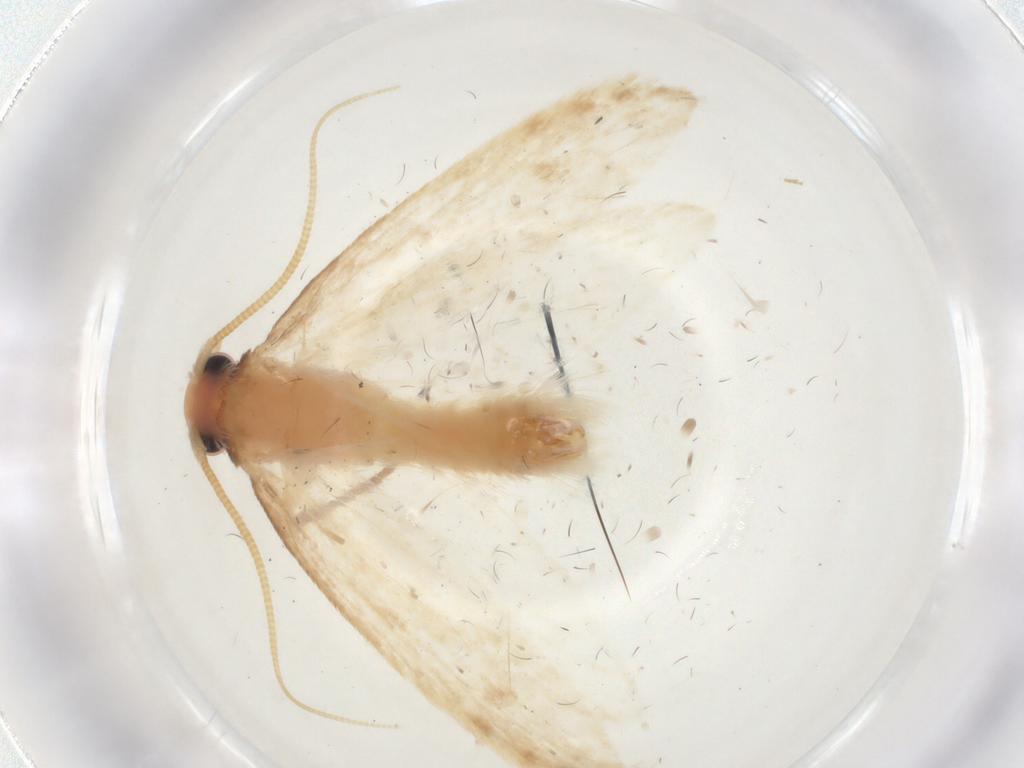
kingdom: Animalia
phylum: Arthropoda
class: Insecta
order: Lepidoptera
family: Gelechiidae
